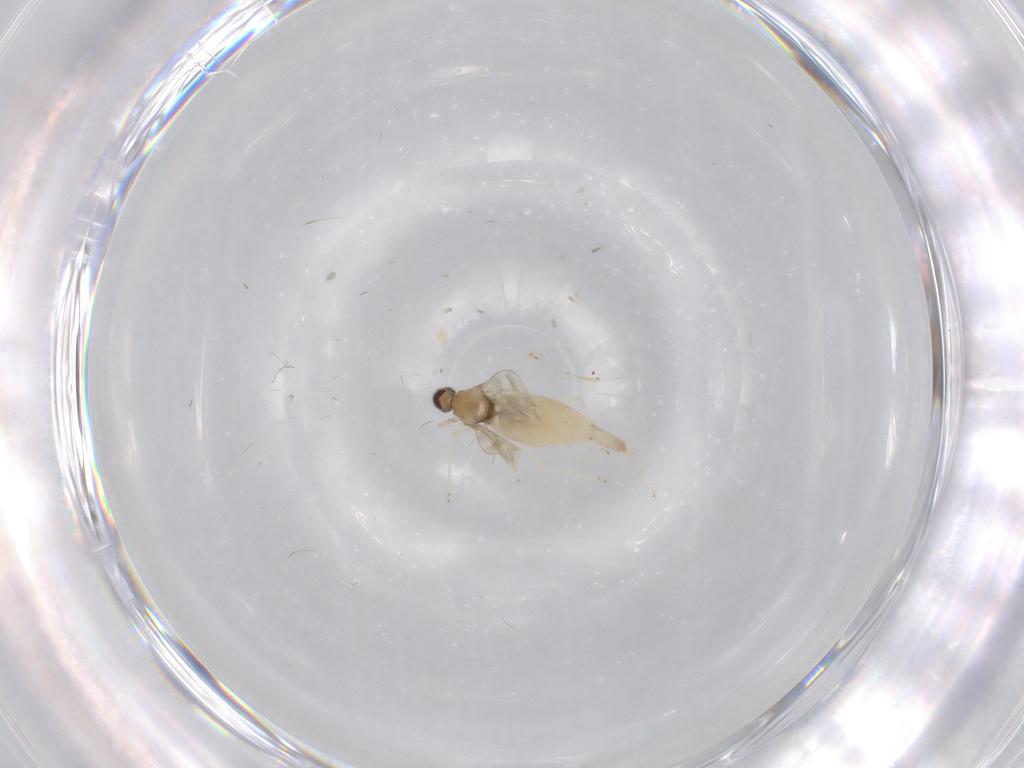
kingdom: Animalia
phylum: Arthropoda
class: Insecta
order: Diptera
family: Cecidomyiidae
